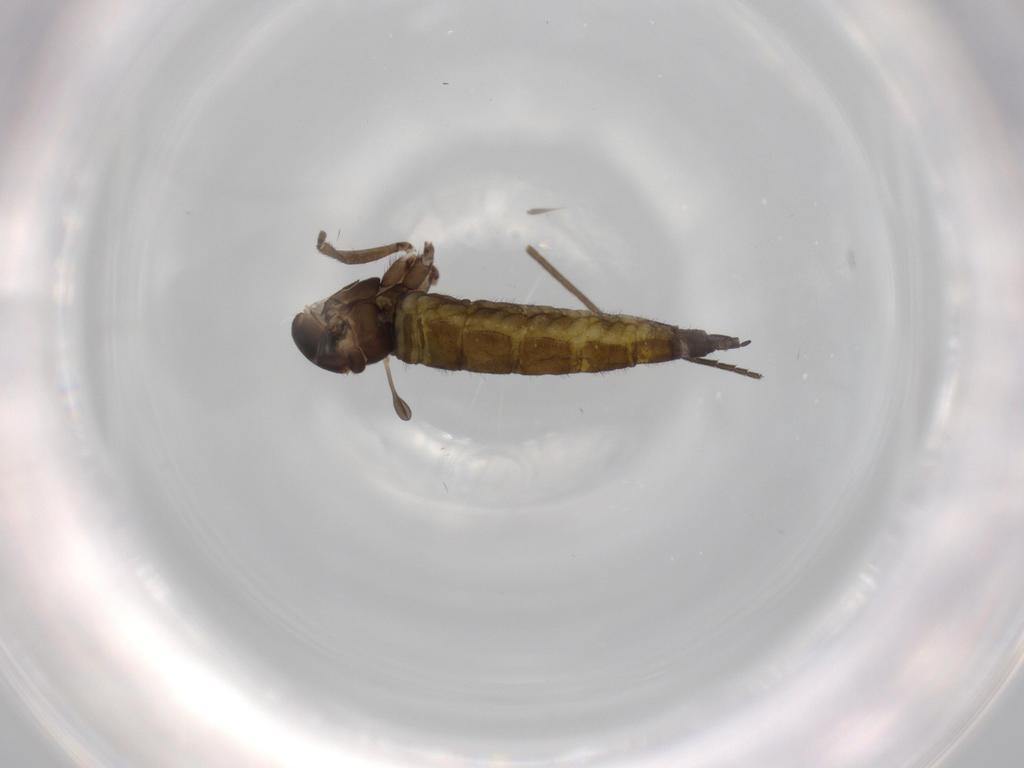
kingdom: Animalia
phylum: Arthropoda
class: Insecta
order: Diptera
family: Sciaridae
